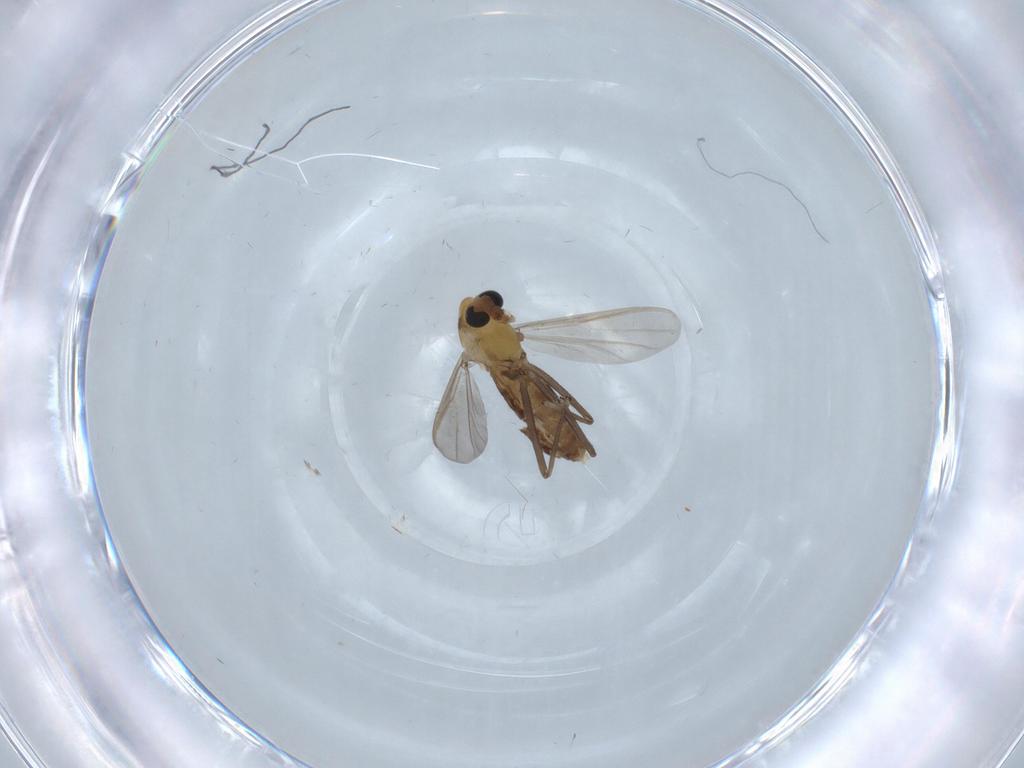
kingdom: Animalia
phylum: Arthropoda
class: Insecta
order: Diptera
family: Chironomidae
